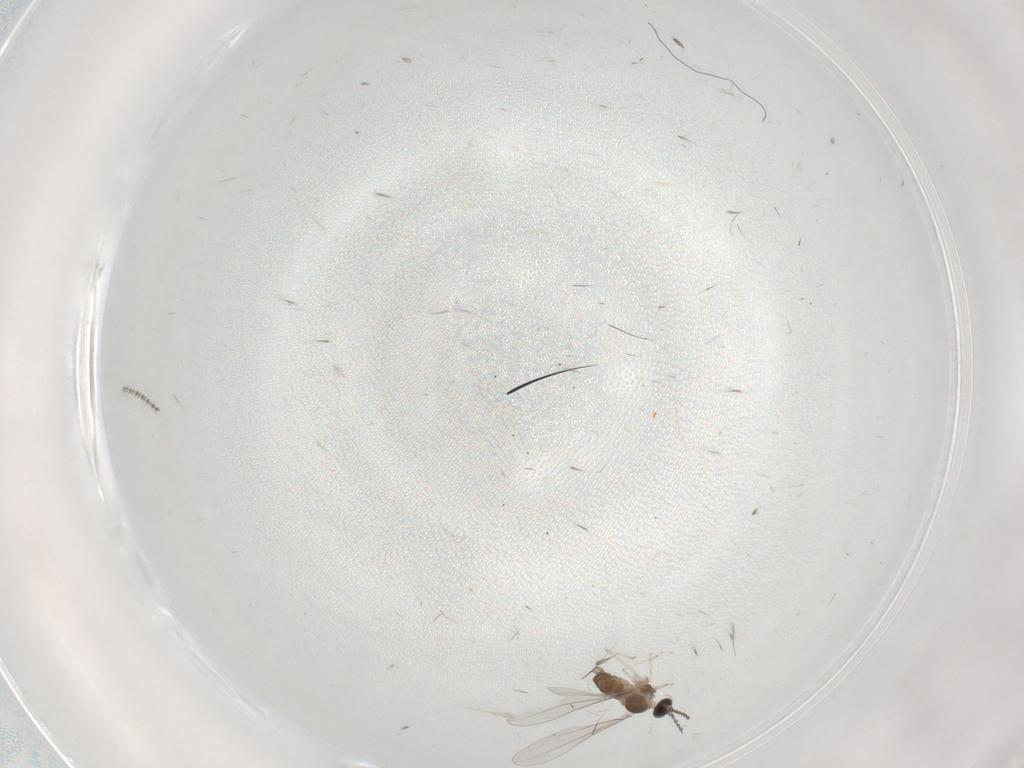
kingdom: Animalia
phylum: Arthropoda
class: Insecta
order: Diptera
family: Cecidomyiidae
